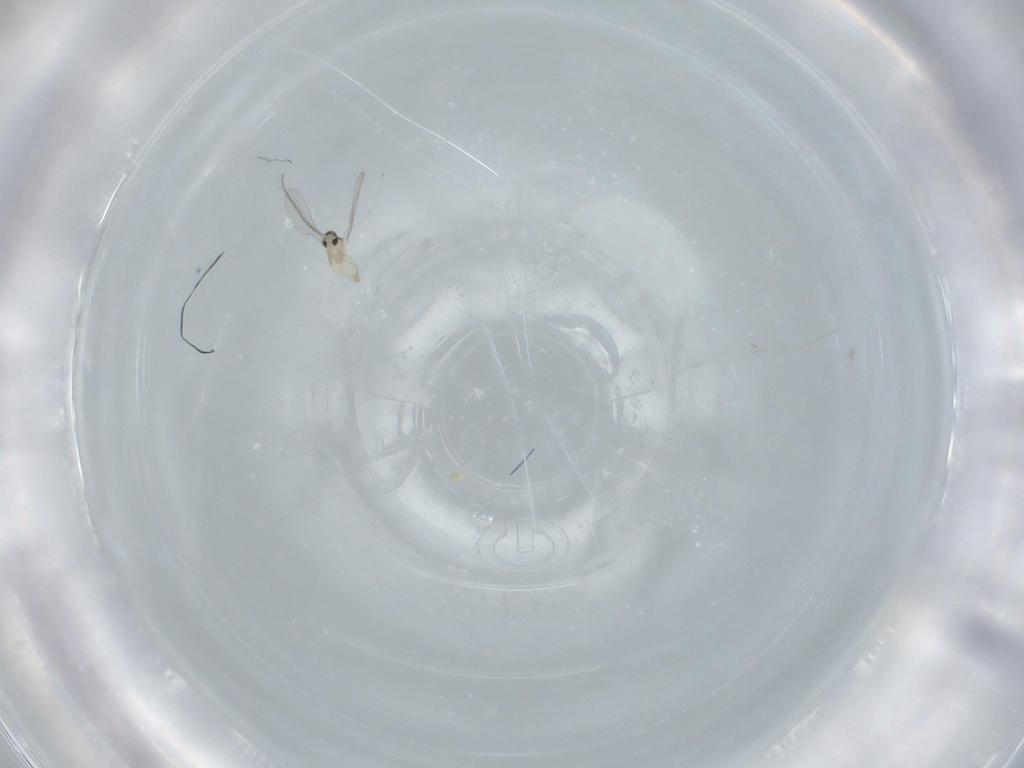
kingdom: Animalia
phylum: Arthropoda
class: Insecta
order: Diptera
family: Cecidomyiidae
